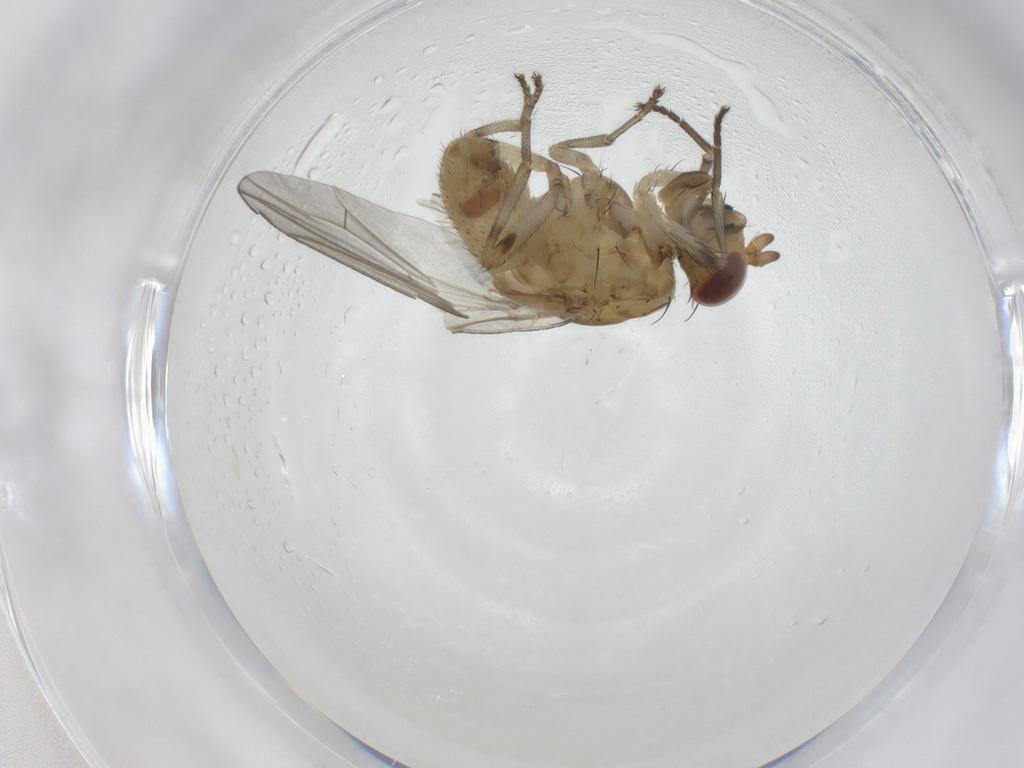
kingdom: Animalia
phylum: Arthropoda
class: Insecta
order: Diptera
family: Lauxaniidae
